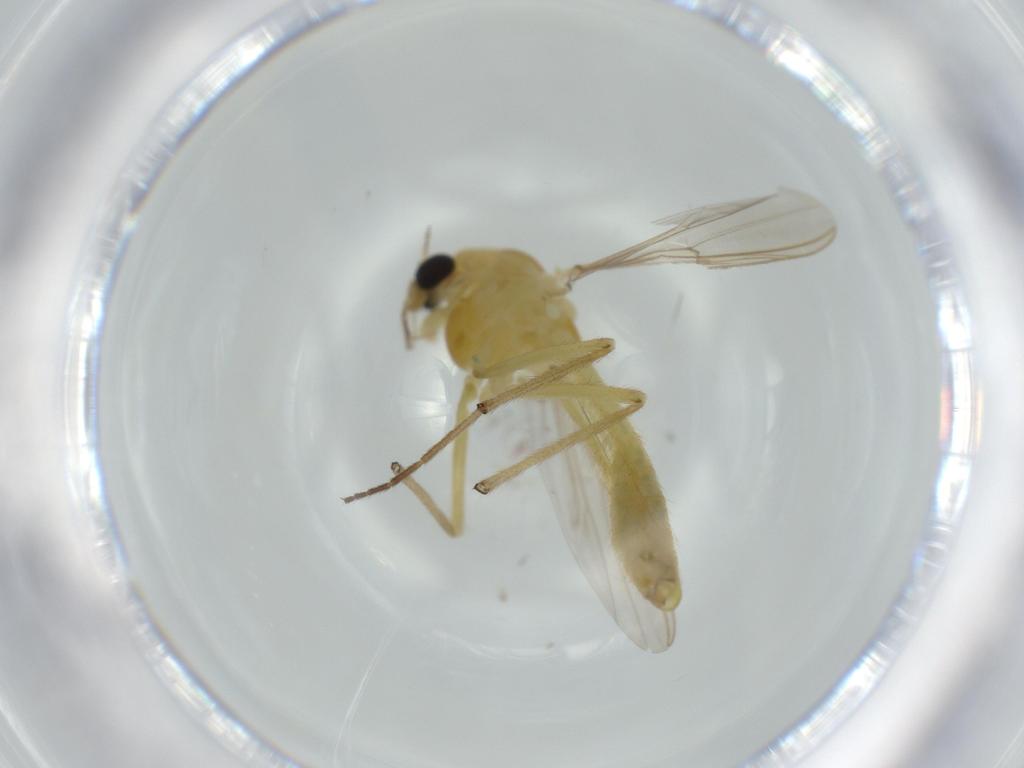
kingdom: Animalia
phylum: Arthropoda
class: Insecta
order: Diptera
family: Chironomidae
